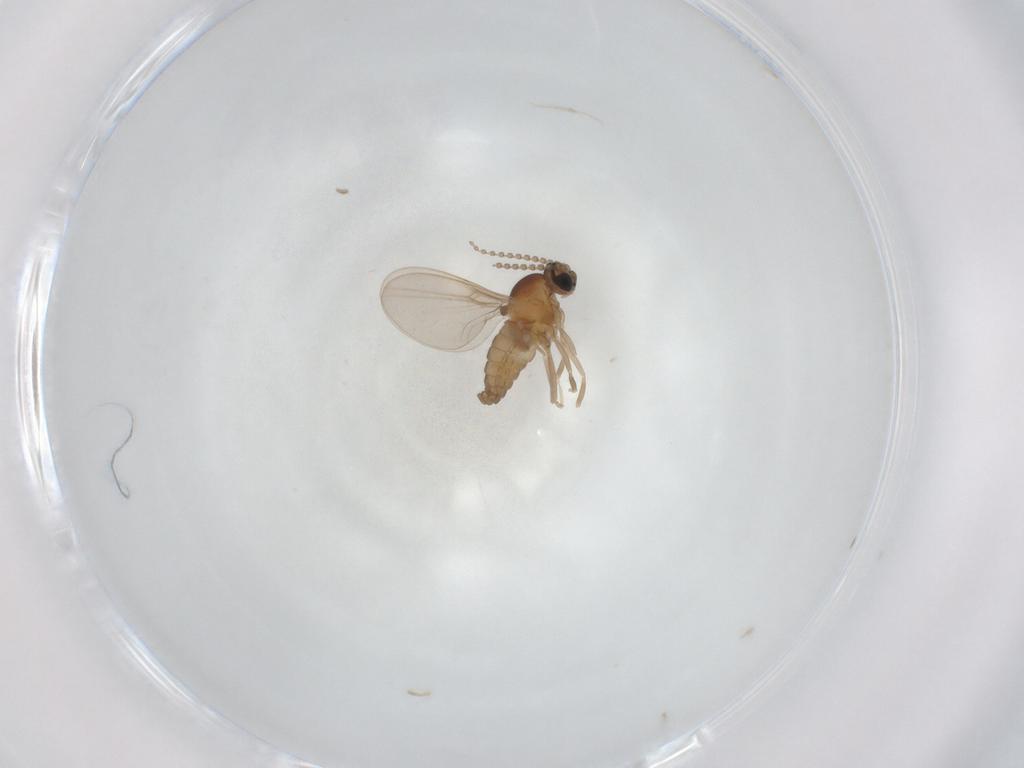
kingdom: Animalia
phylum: Arthropoda
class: Insecta
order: Diptera
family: Cecidomyiidae
